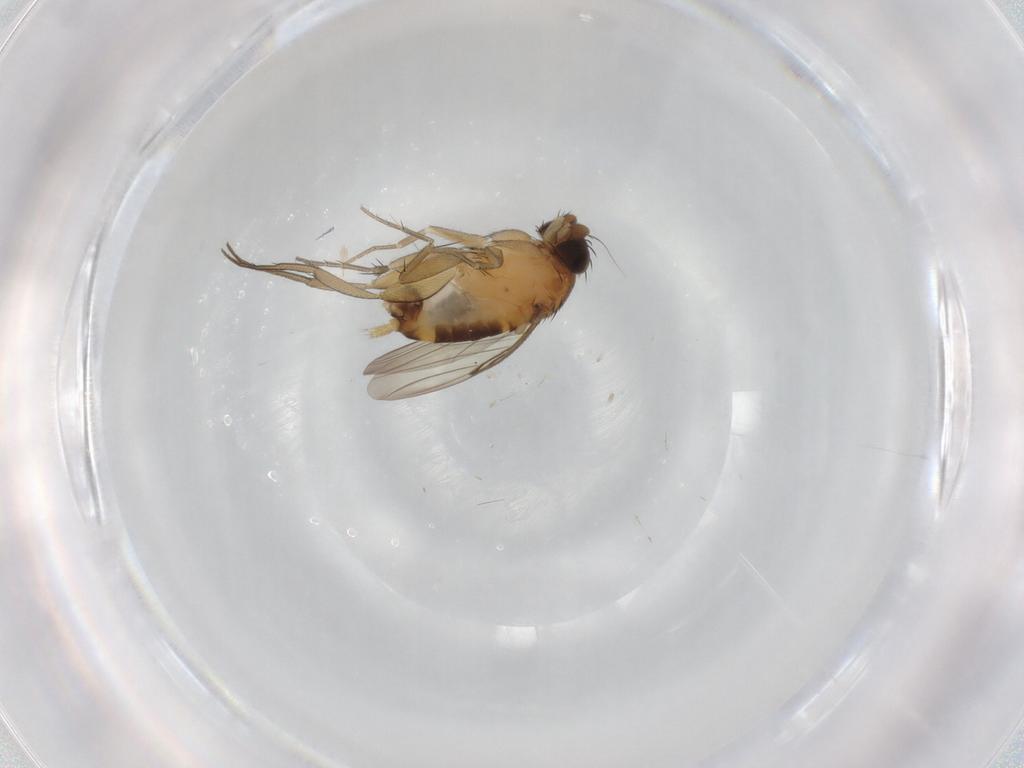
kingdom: Animalia
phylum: Arthropoda
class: Insecta
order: Diptera
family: Phoridae
